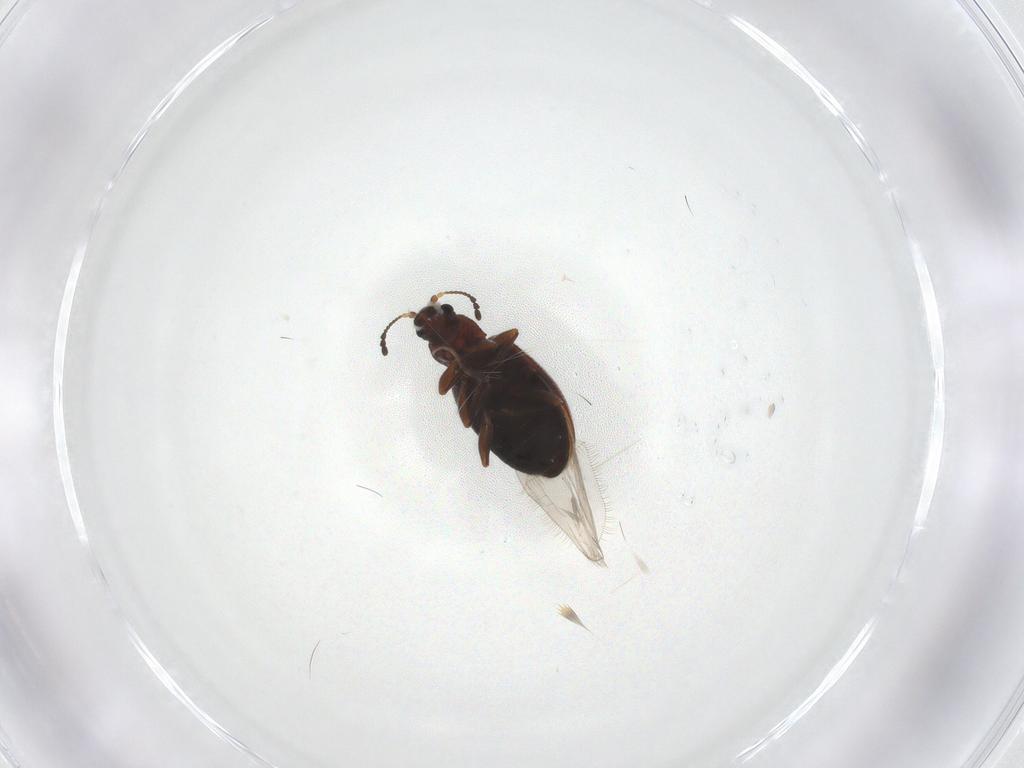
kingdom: Animalia
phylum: Arthropoda
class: Insecta
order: Coleoptera
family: Latridiidae
